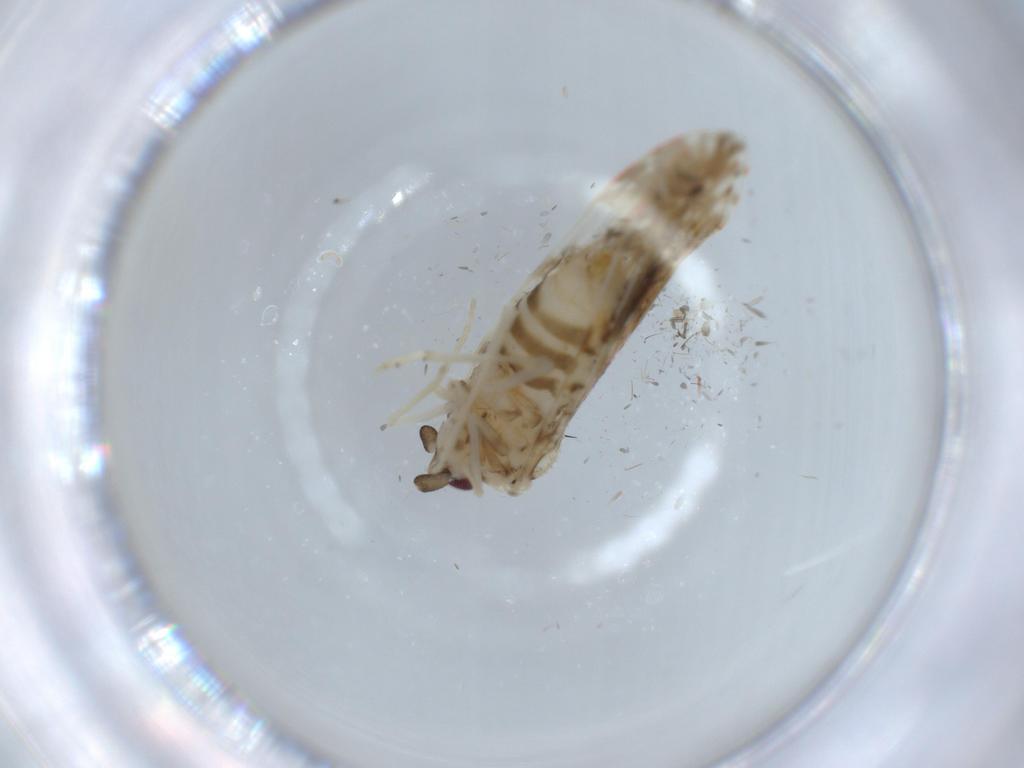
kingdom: Animalia
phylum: Arthropoda
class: Insecta
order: Hemiptera
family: Derbidae
